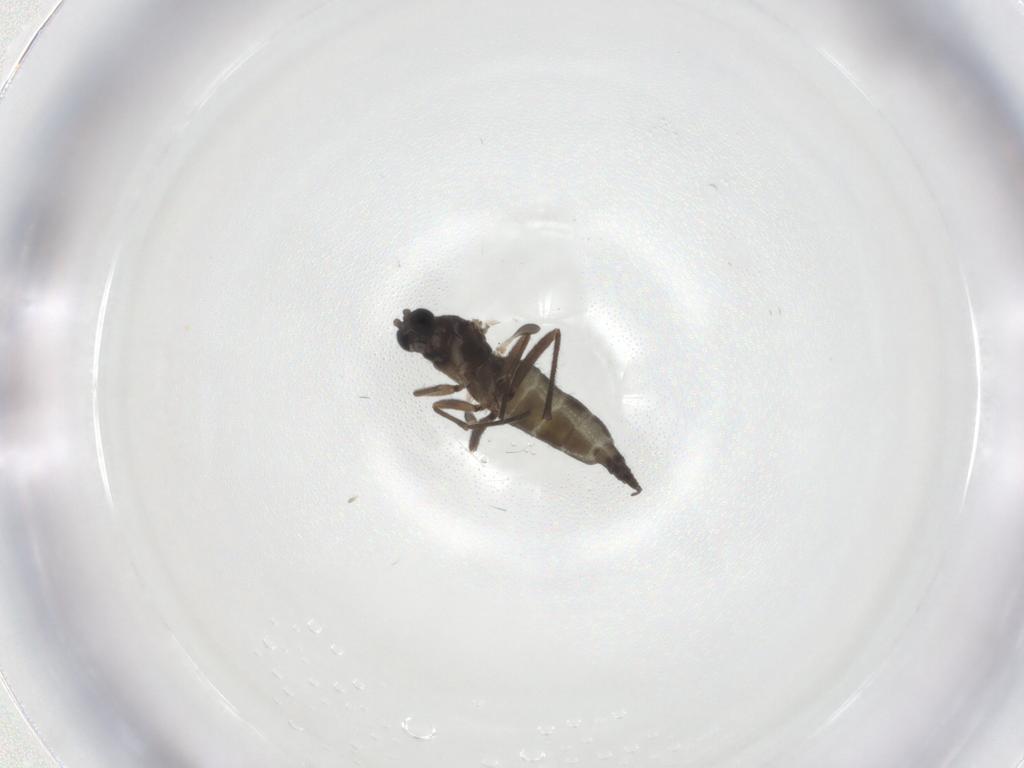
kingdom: Animalia
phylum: Arthropoda
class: Insecta
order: Diptera
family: Sciaridae
